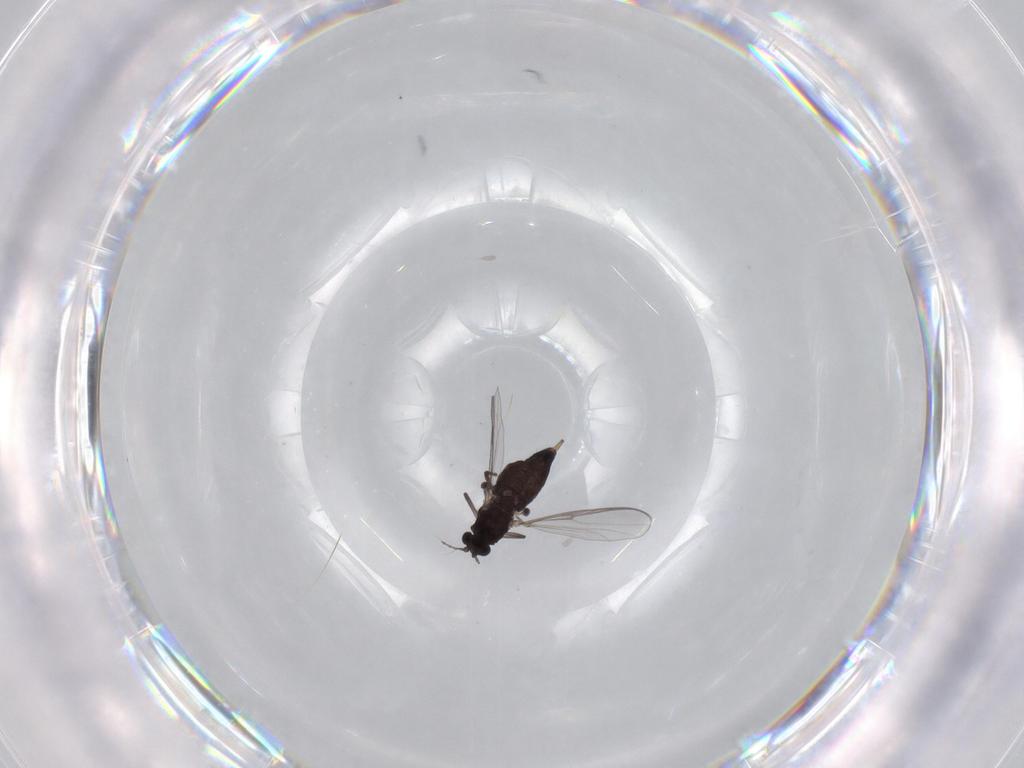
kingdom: Animalia
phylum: Arthropoda
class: Insecta
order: Diptera
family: Chironomidae
